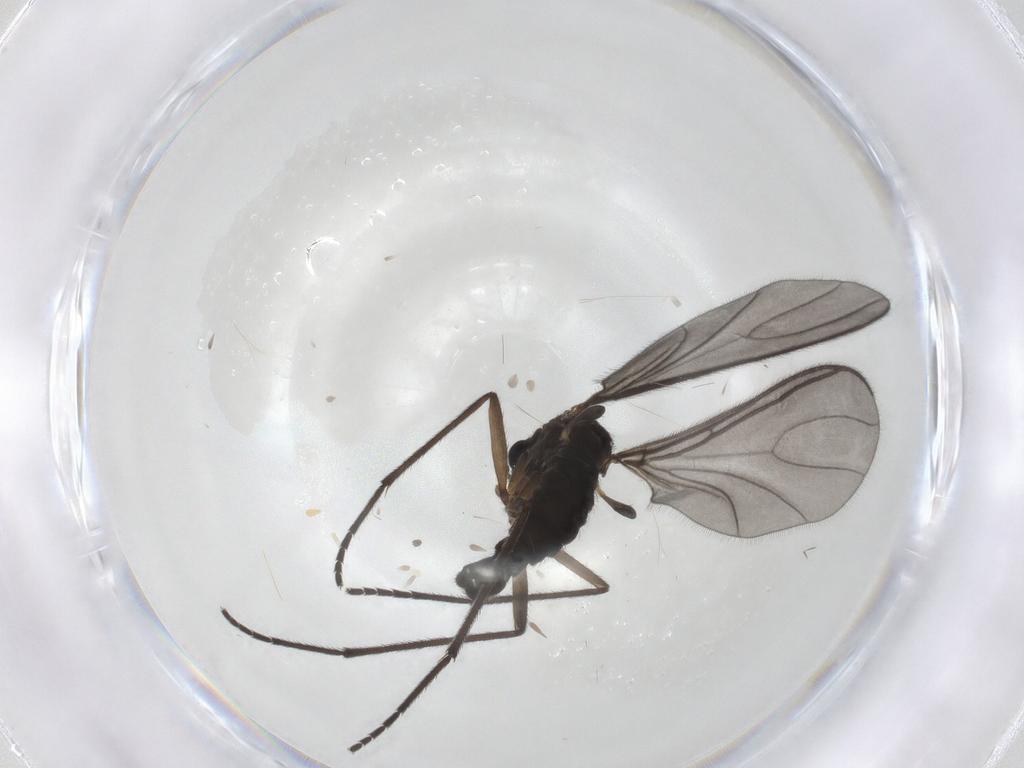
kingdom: Animalia
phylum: Arthropoda
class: Insecta
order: Diptera
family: Sciaridae
